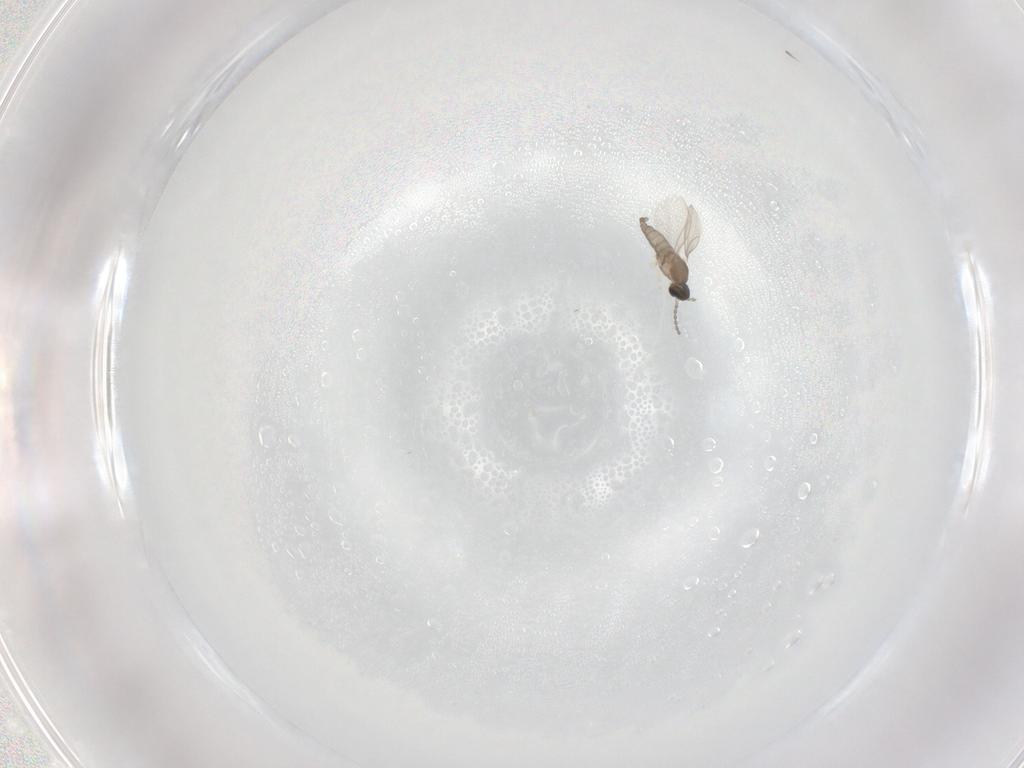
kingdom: Animalia
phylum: Arthropoda
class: Insecta
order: Diptera
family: Cecidomyiidae
